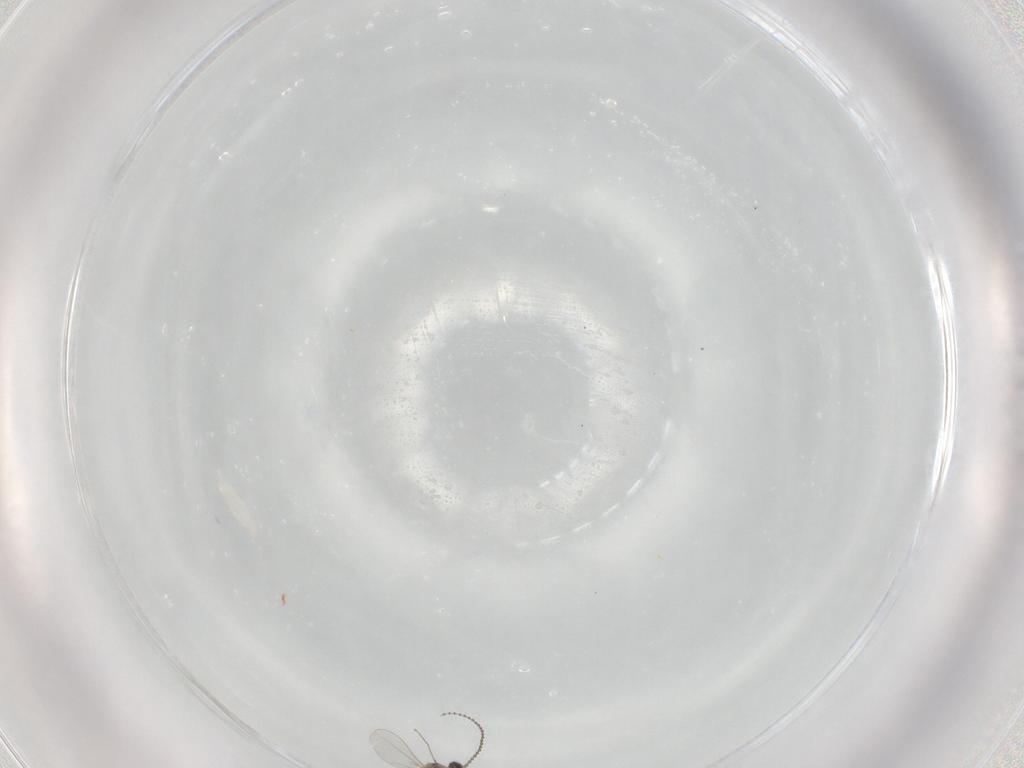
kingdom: Animalia
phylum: Arthropoda
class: Insecta
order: Diptera
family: Cecidomyiidae
